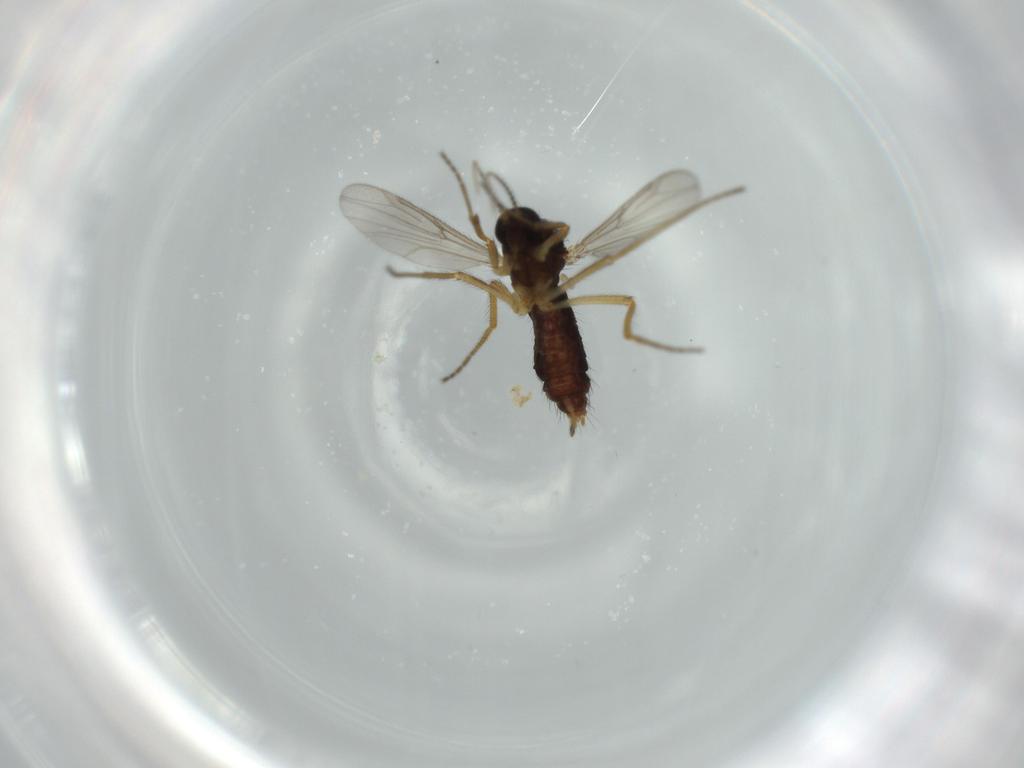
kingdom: Animalia
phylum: Arthropoda
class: Insecta
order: Diptera
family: Ceratopogonidae
